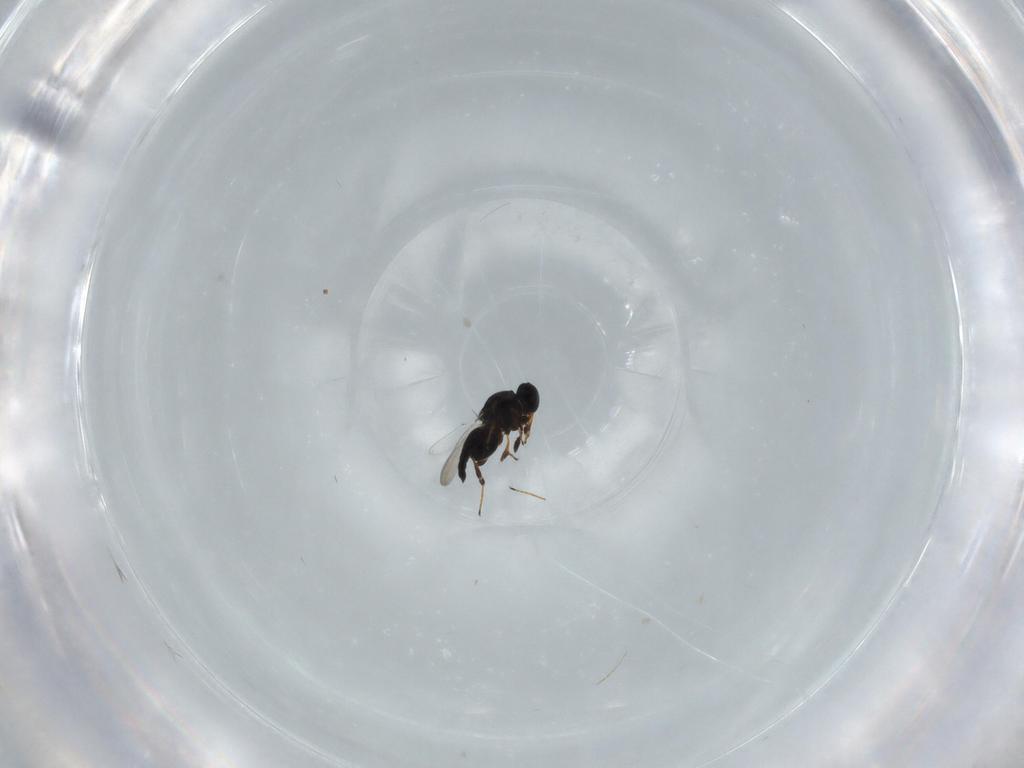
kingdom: Animalia
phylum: Arthropoda
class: Insecta
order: Hymenoptera
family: Platygastridae
